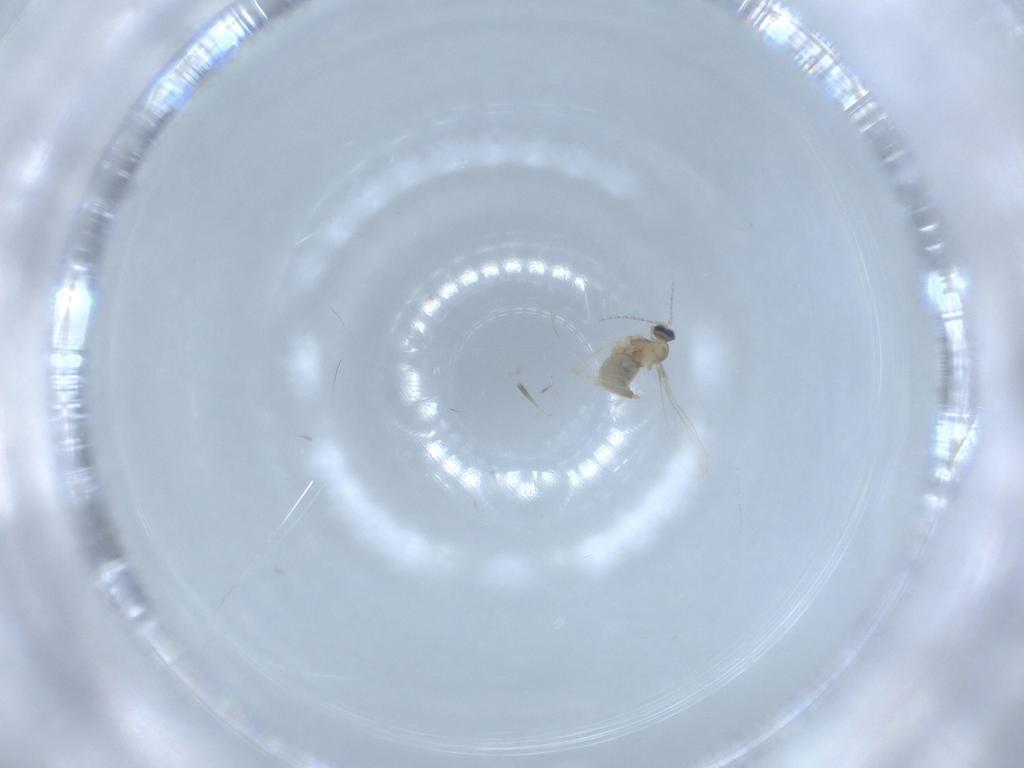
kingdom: Animalia
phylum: Arthropoda
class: Insecta
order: Diptera
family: Cecidomyiidae
